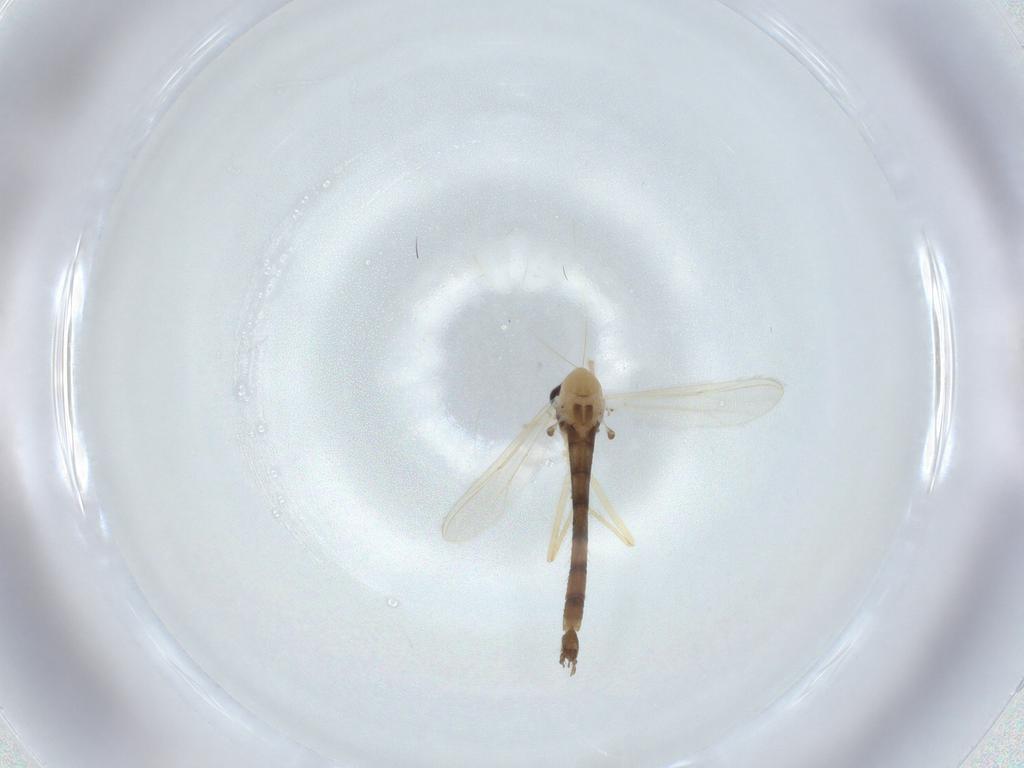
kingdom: Animalia
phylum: Arthropoda
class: Insecta
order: Diptera
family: Chironomidae
